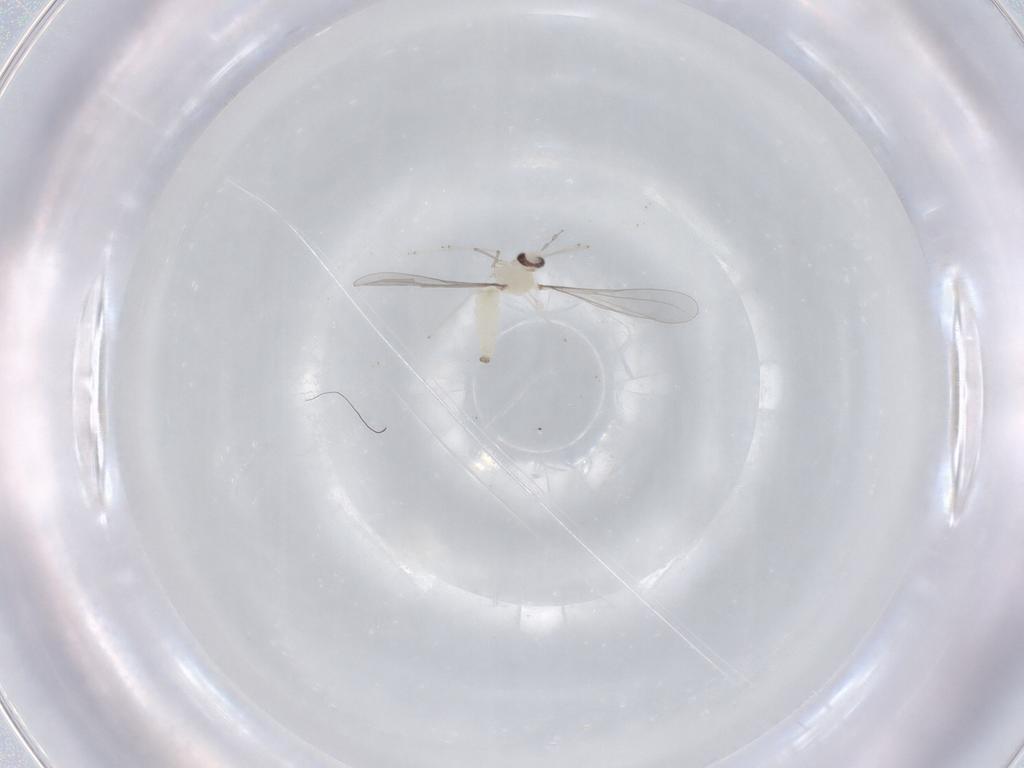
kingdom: Animalia
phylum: Arthropoda
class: Insecta
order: Diptera
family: Cecidomyiidae
